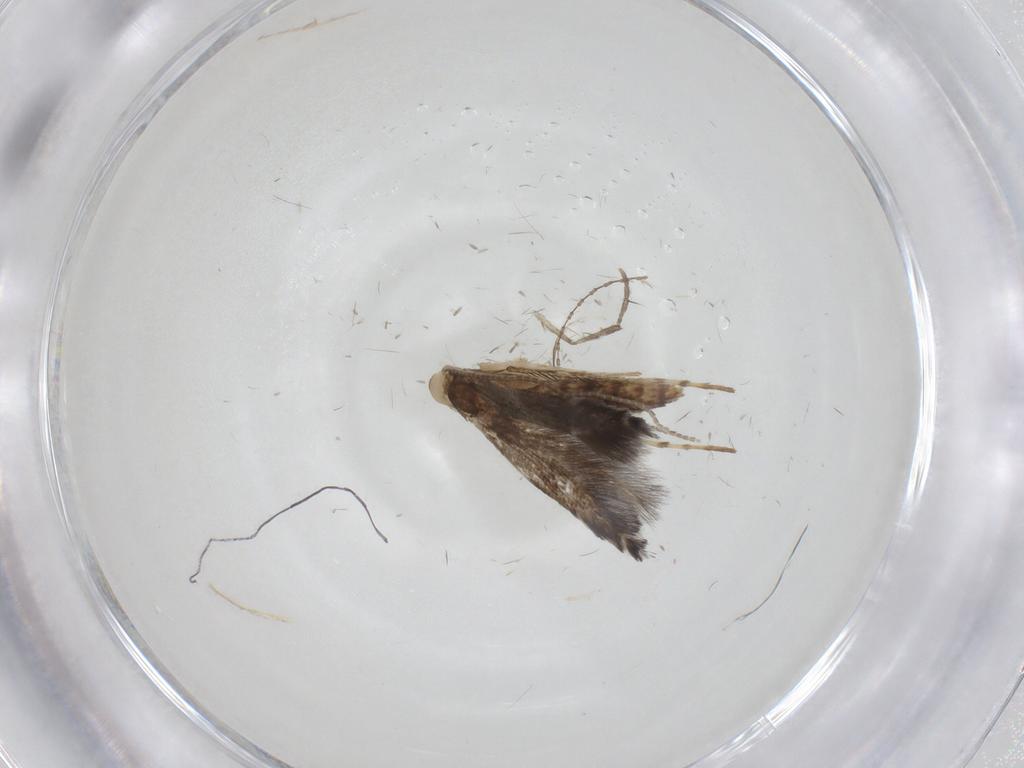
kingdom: Animalia
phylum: Arthropoda
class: Insecta
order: Lepidoptera
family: Gracillariidae
